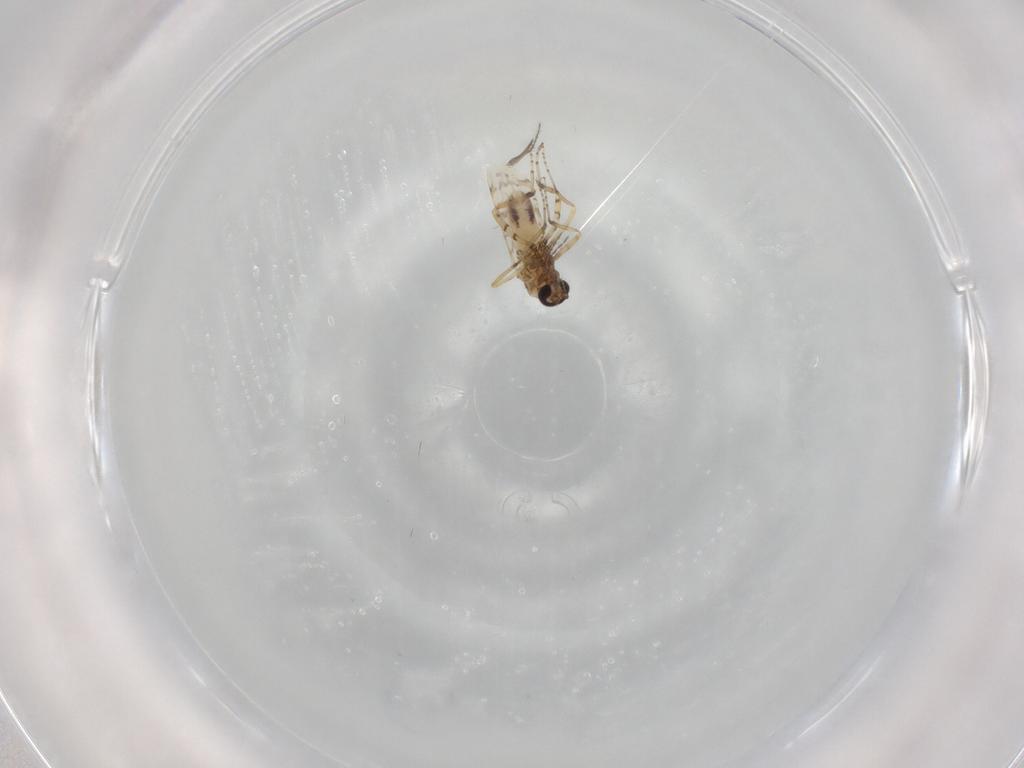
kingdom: Animalia
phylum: Arthropoda
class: Insecta
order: Diptera
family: Ceratopogonidae
